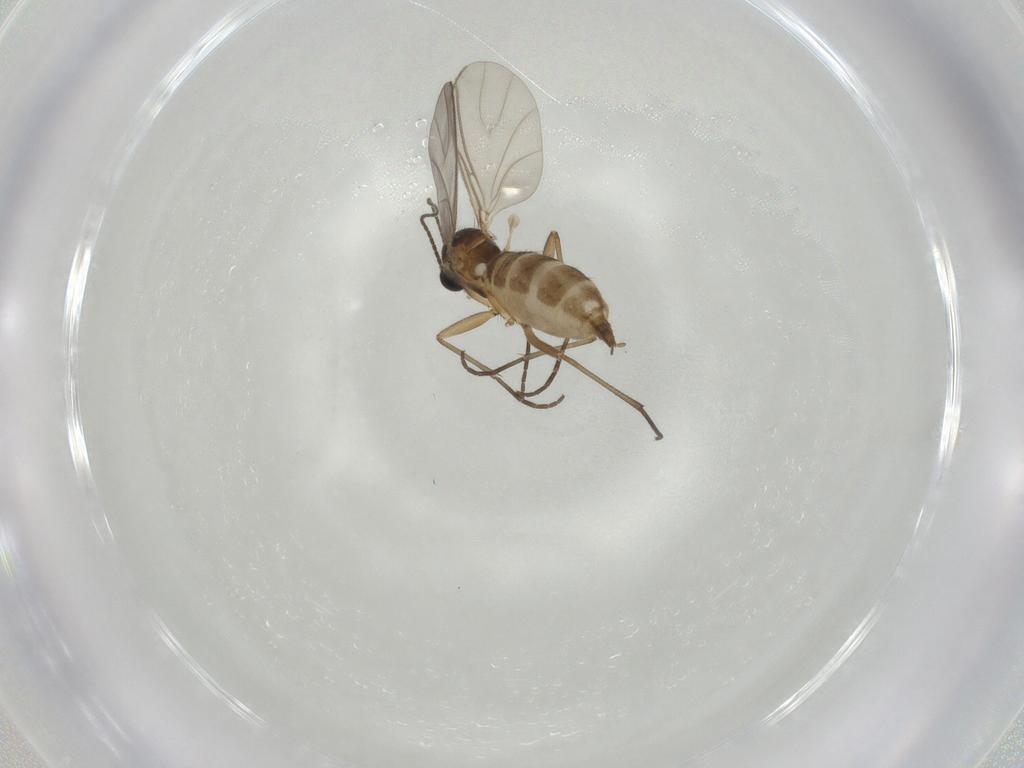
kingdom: Animalia
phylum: Arthropoda
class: Insecta
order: Diptera
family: Sciaridae
